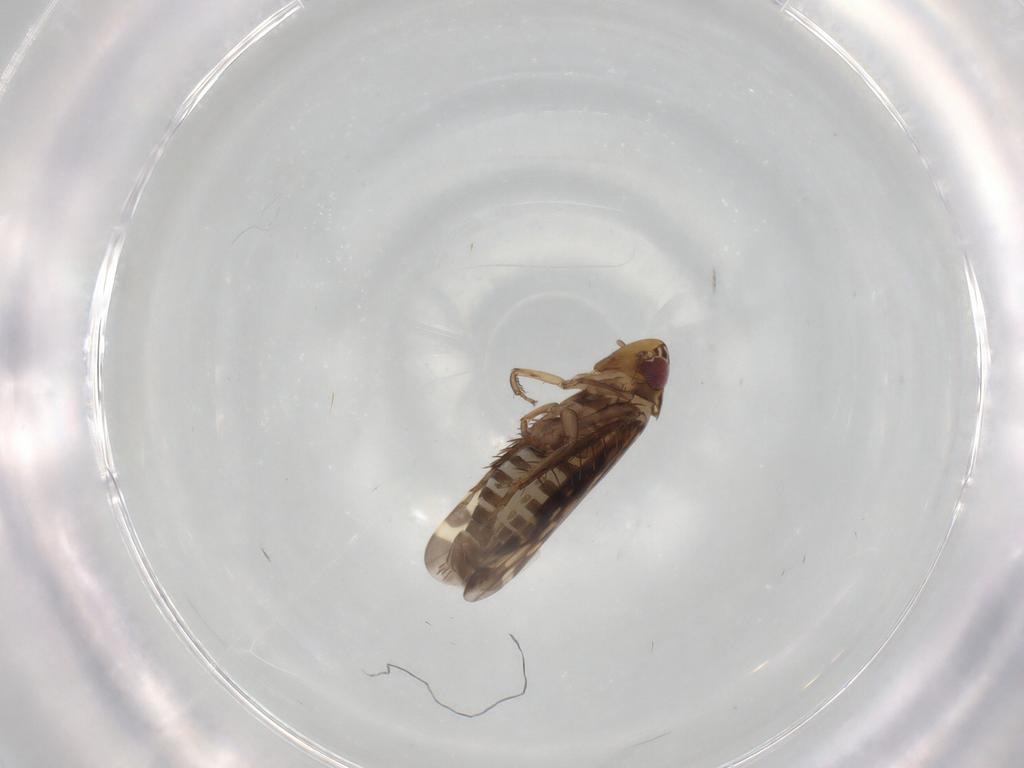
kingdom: Animalia
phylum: Arthropoda
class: Insecta
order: Hemiptera
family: Cicadellidae
